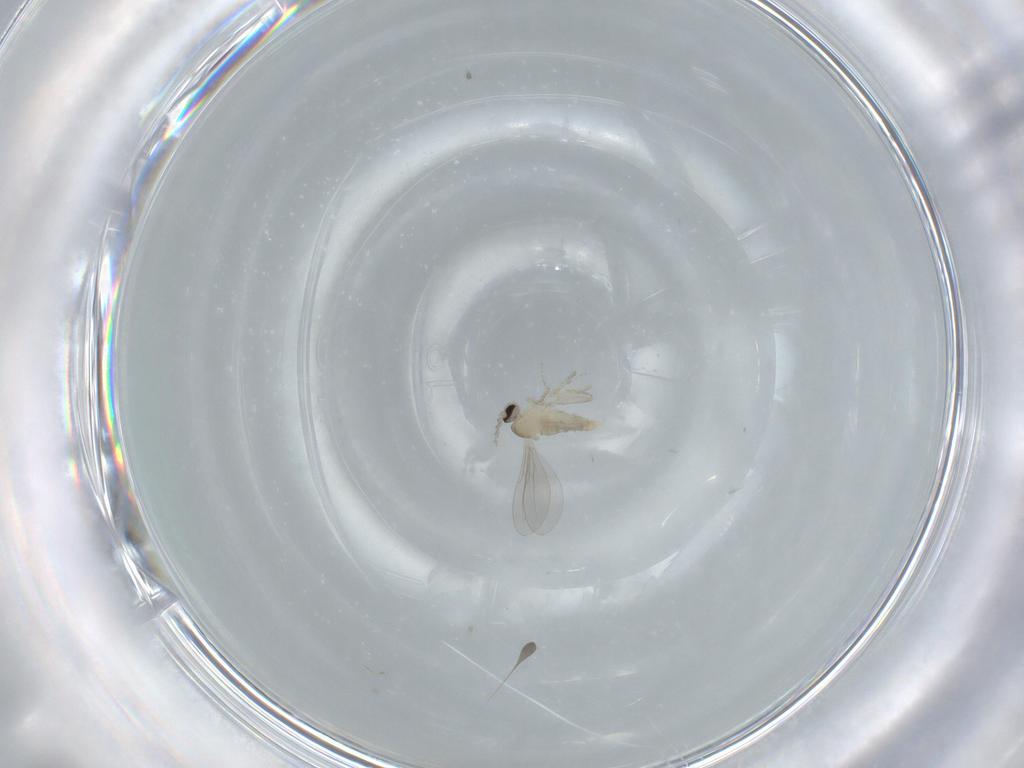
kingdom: Animalia
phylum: Arthropoda
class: Insecta
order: Diptera
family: Cecidomyiidae
